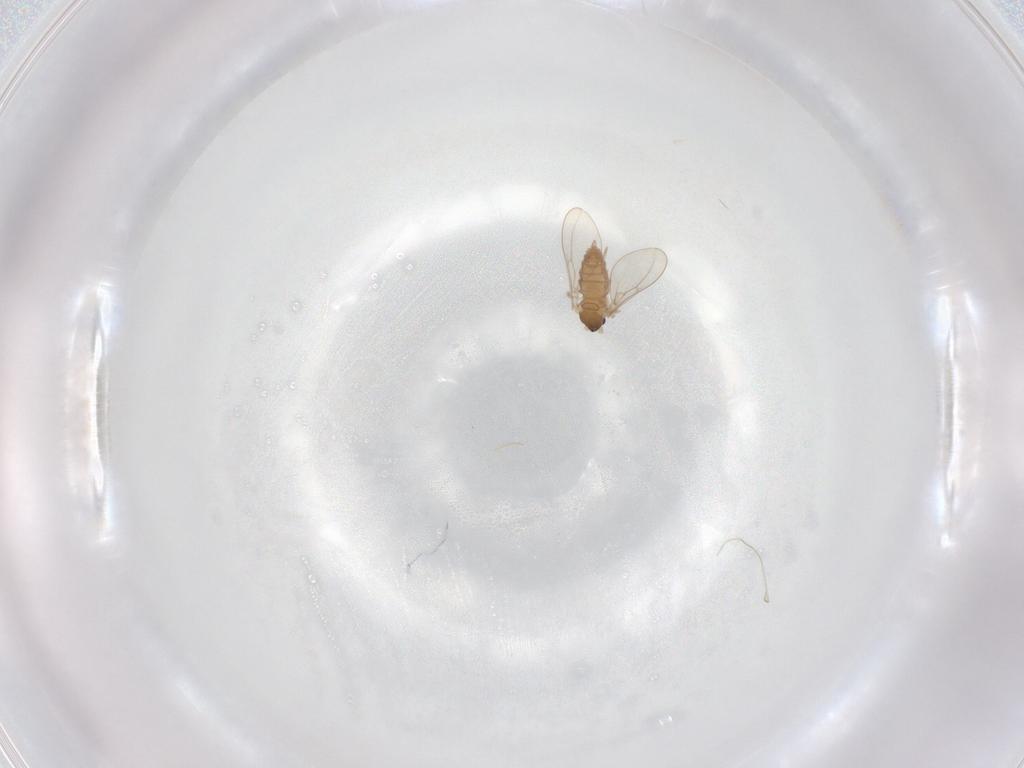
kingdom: Animalia
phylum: Arthropoda
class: Insecta
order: Diptera
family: Cecidomyiidae
